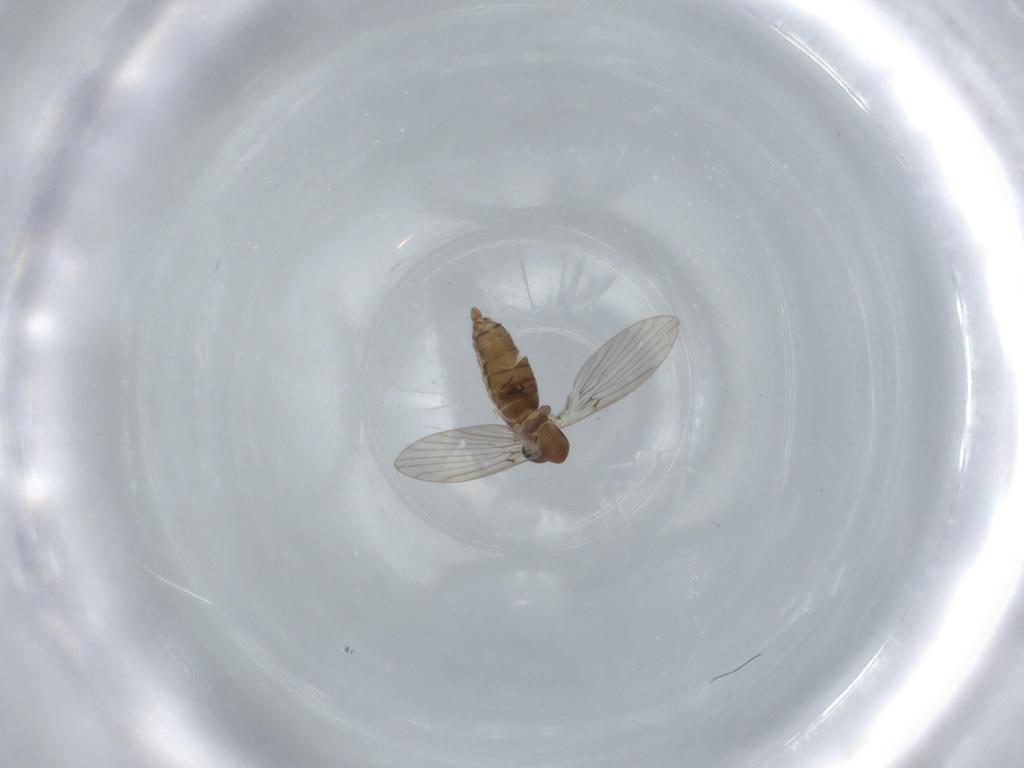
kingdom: Animalia
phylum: Arthropoda
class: Insecta
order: Diptera
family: Psychodidae
